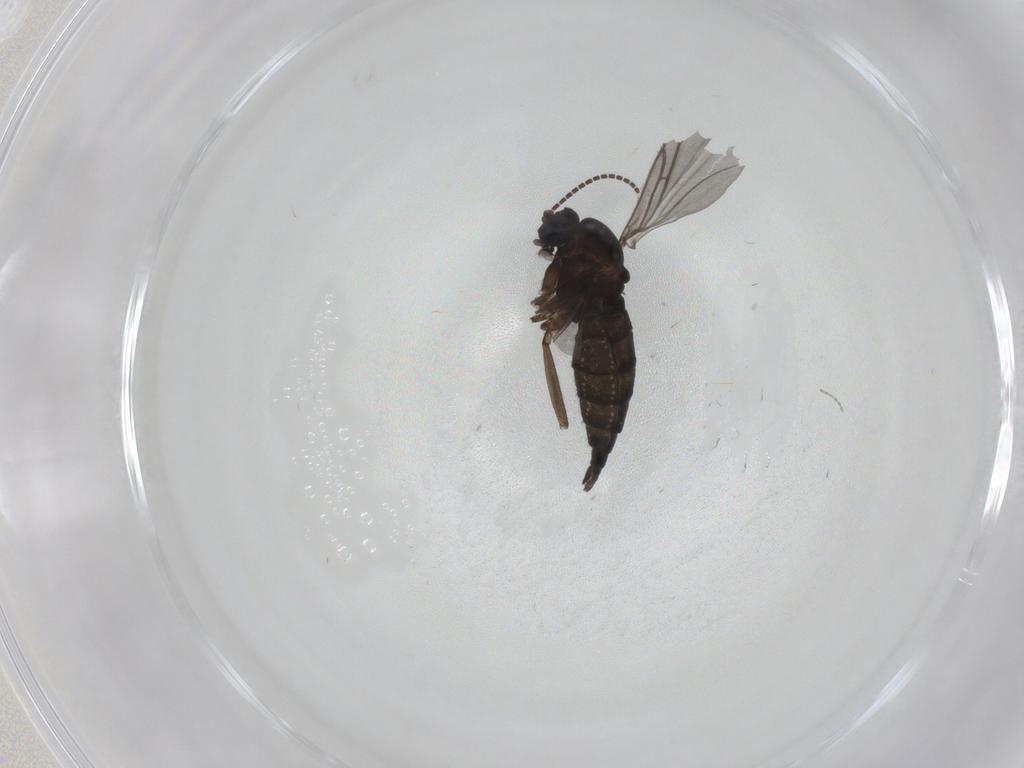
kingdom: Animalia
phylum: Arthropoda
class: Insecta
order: Diptera
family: Sciaridae
